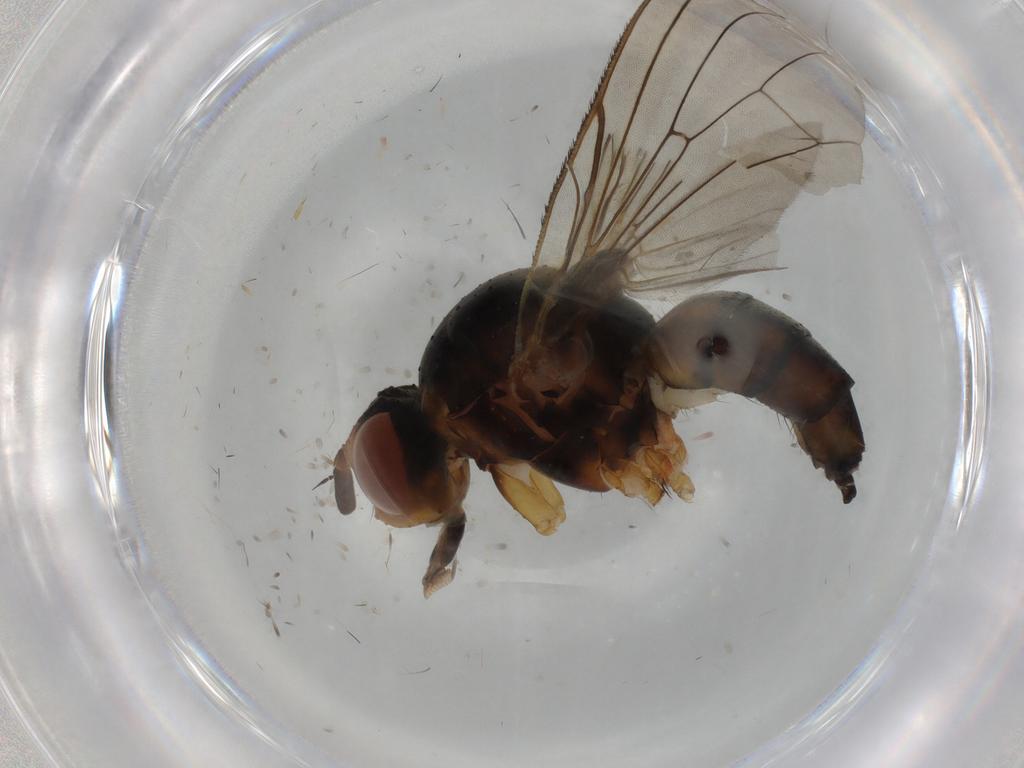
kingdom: Animalia
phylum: Arthropoda
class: Insecta
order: Diptera
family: Anthomyiidae
